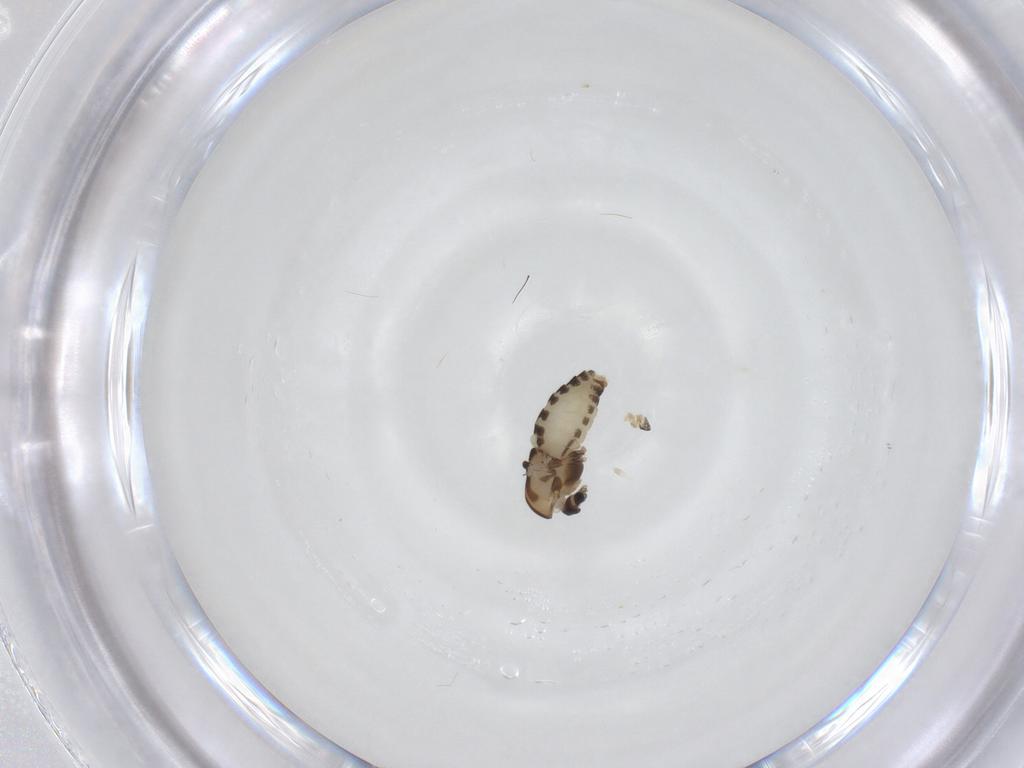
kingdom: Animalia
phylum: Arthropoda
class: Insecta
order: Diptera
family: Chironomidae
